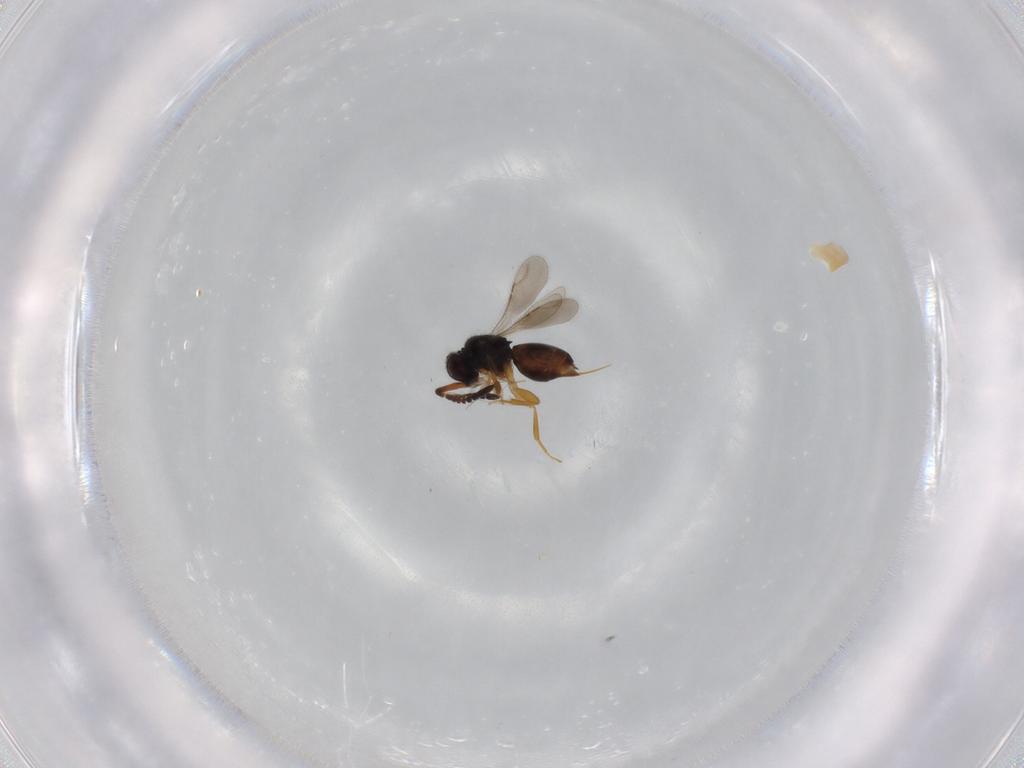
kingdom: Animalia
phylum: Arthropoda
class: Insecta
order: Hymenoptera
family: Ceraphronidae
